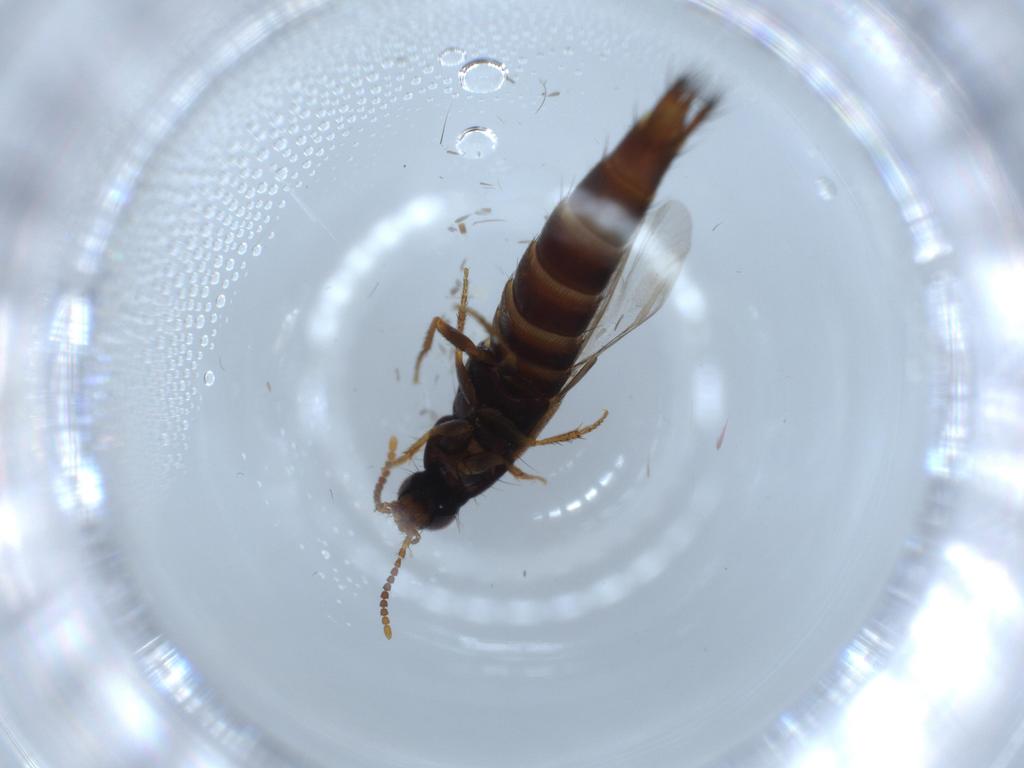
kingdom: Animalia
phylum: Arthropoda
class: Insecta
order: Coleoptera
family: Staphylinidae
